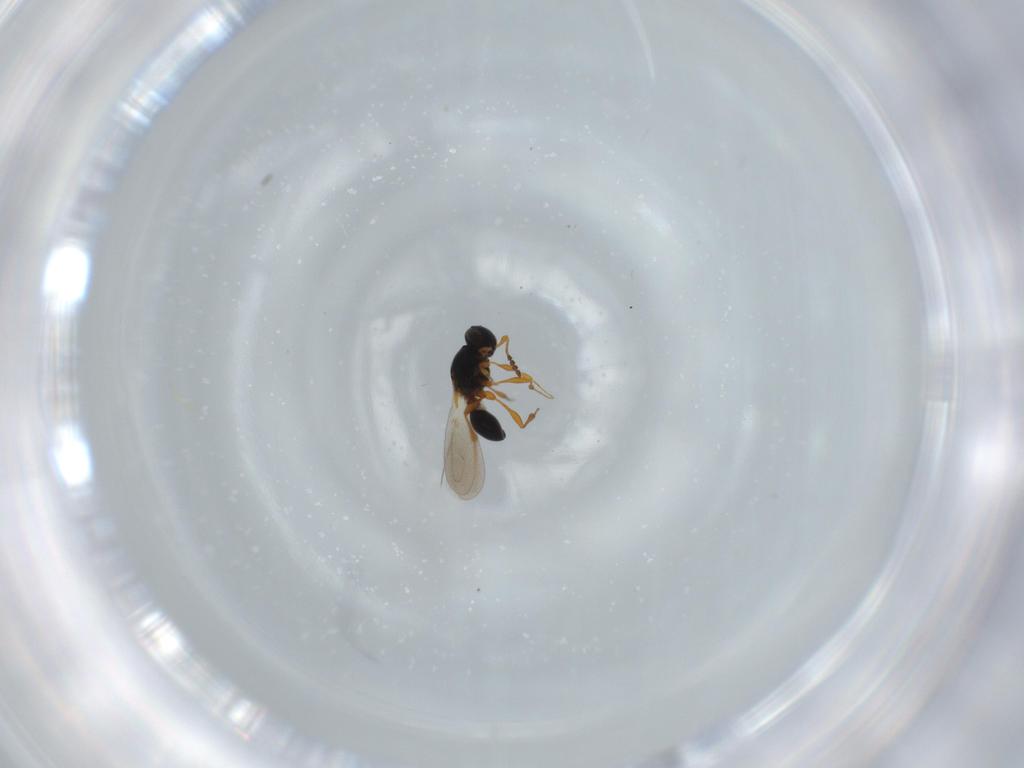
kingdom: Animalia
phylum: Arthropoda
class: Insecta
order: Hymenoptera
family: Platygastridae
